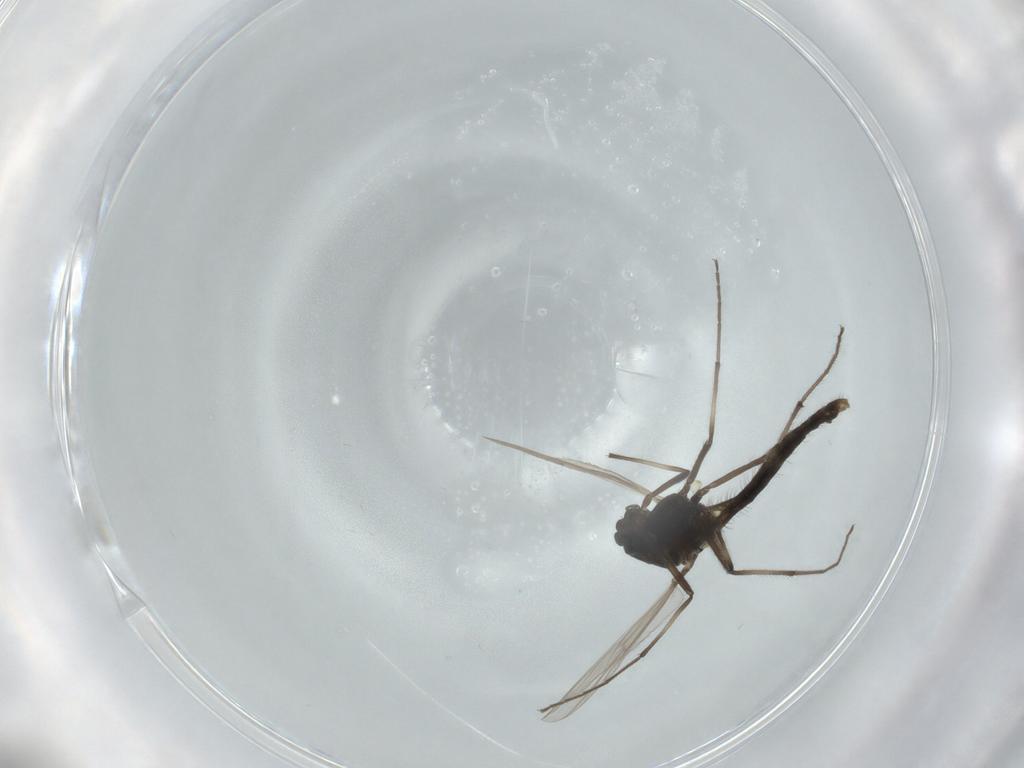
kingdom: Animalia
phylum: Arthropoda
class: Insecta
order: Diptera
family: Chironomidae
